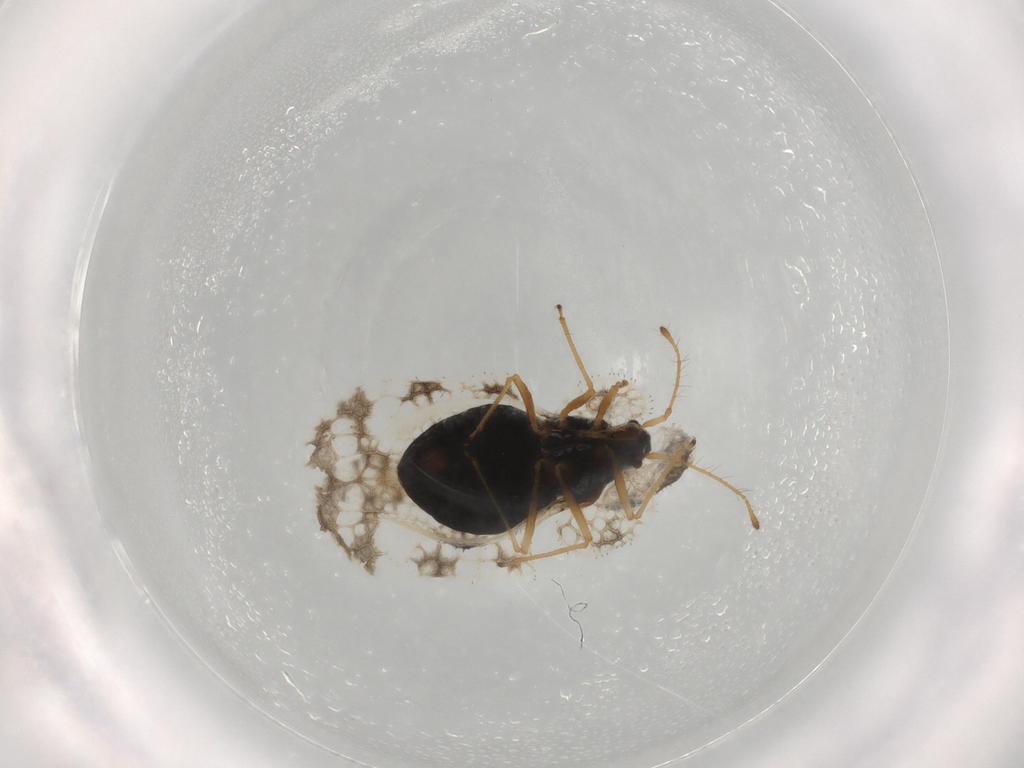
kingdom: Animalia
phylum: Arthropoda
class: Insecta
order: Hemiptera
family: Tingidae
